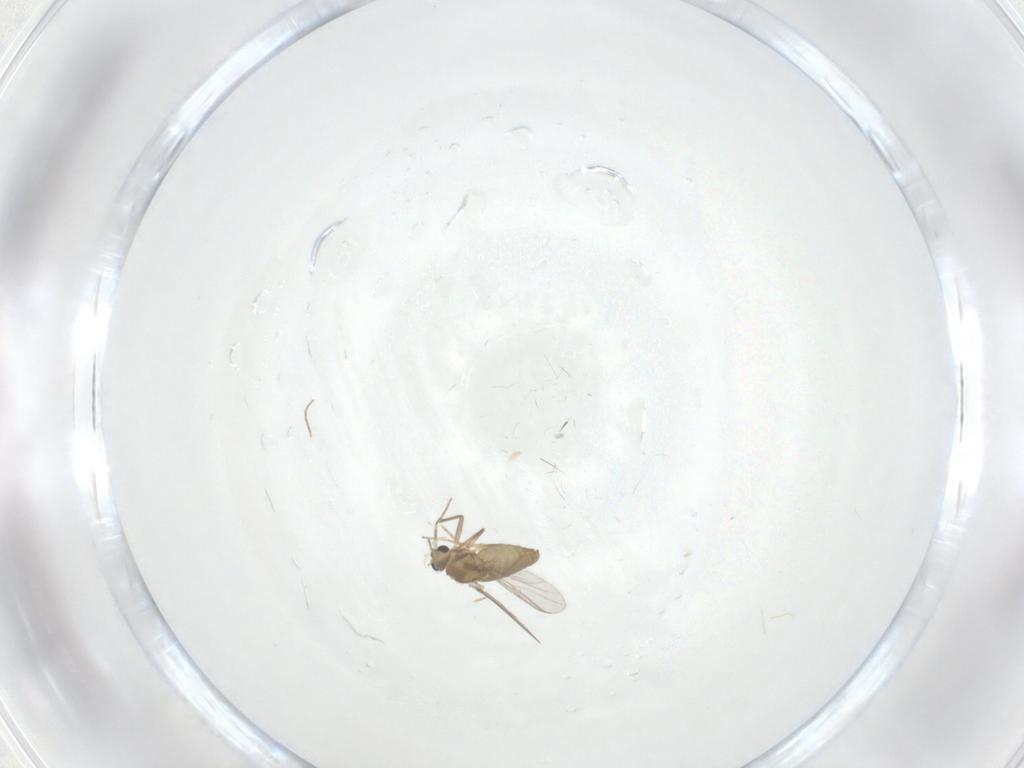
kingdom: Animalia
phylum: Arthropoda
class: Insecta
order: Diptera
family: Chironomidae
